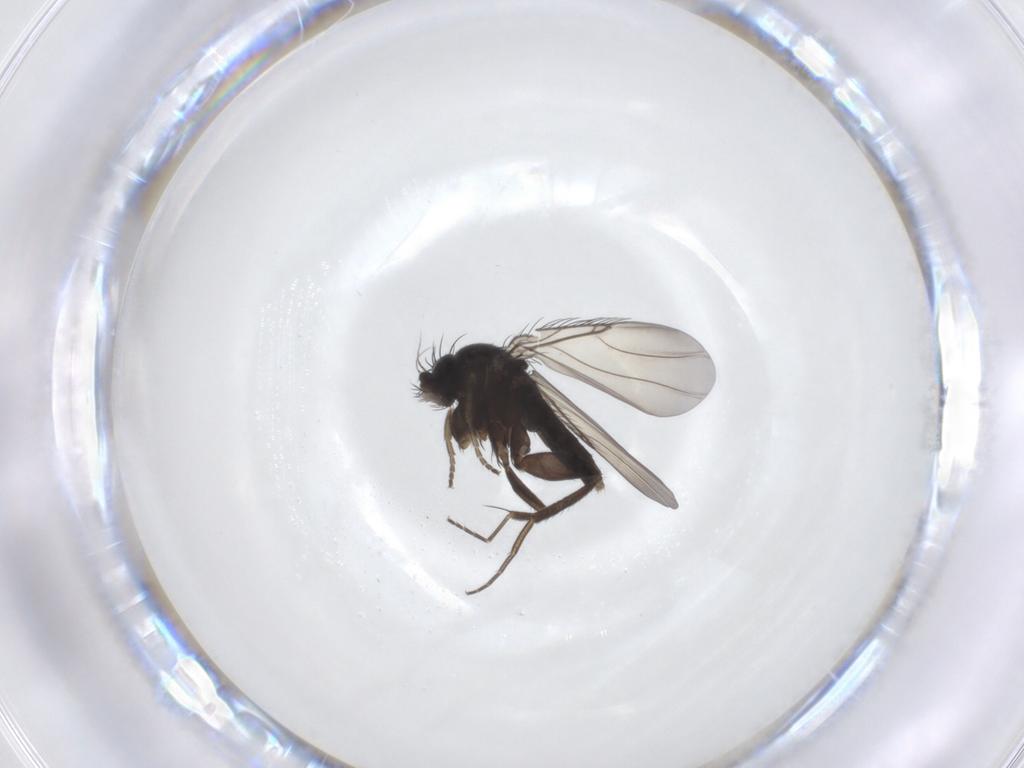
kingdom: Animalia
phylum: Arthropoda
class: Insecta
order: Diptera
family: Phoridae
